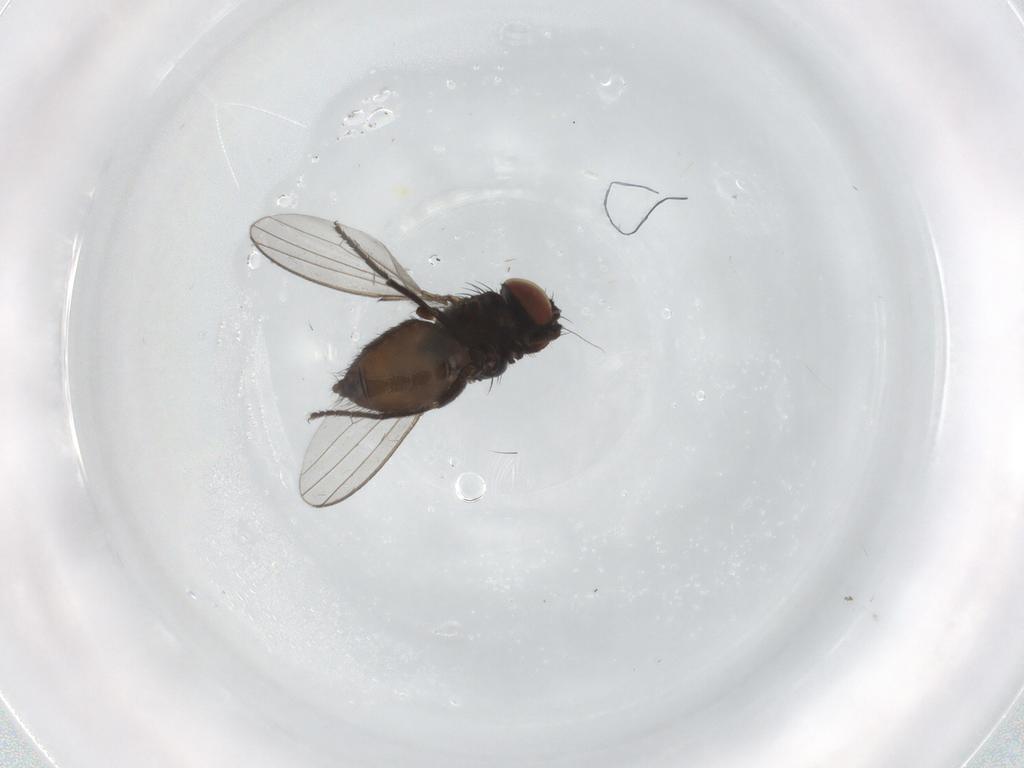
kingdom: Animalia
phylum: Arthropoda
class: Insecta
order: Diptera
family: Milichiidae
